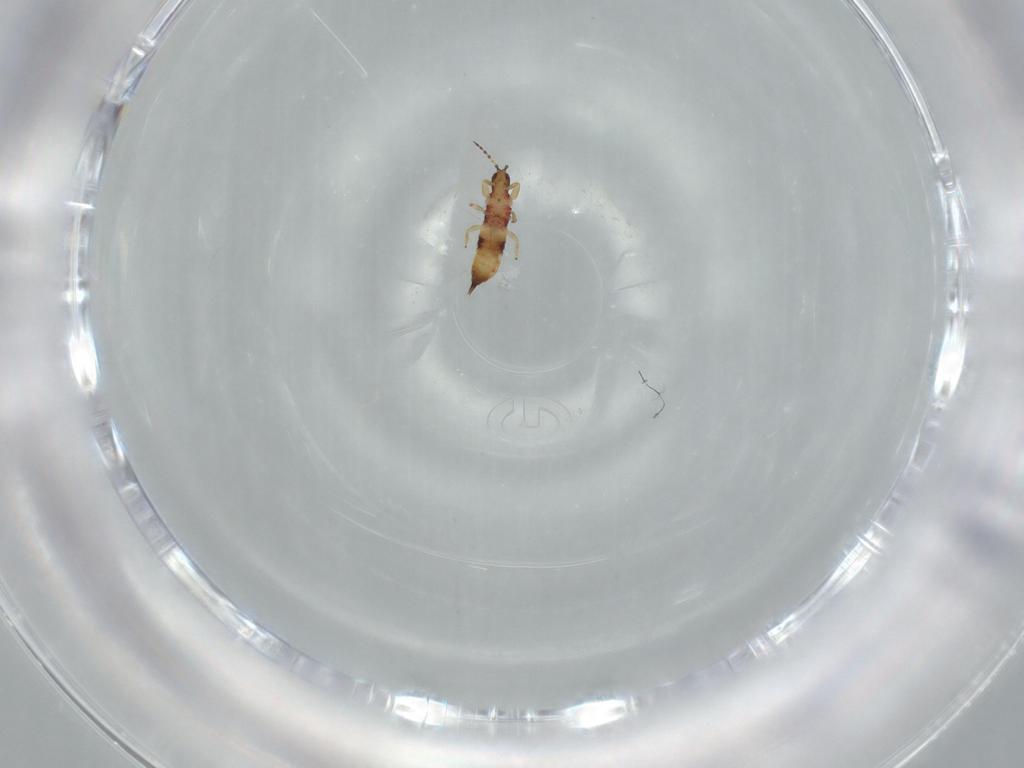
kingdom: Animalia
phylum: Arthropoda
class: Insecta
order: Thysanoptera
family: Phlaeothripidae
